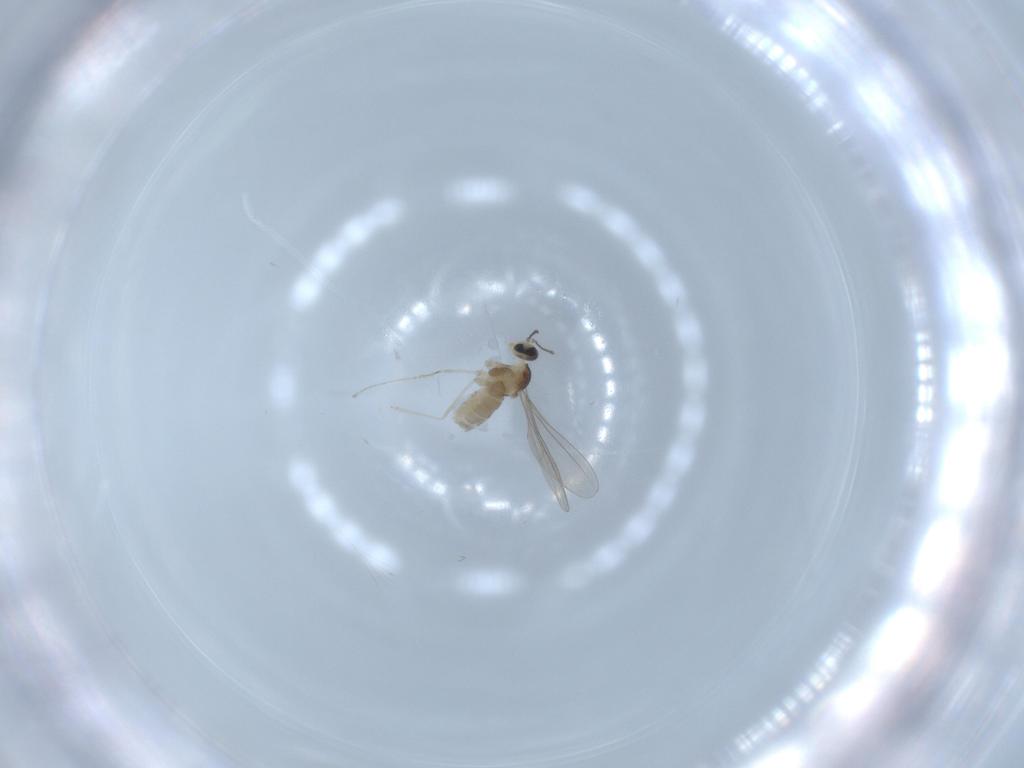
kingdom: Animalia
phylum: Arthropoda
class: Insecta
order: Diptera
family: Cecidomyiidae
